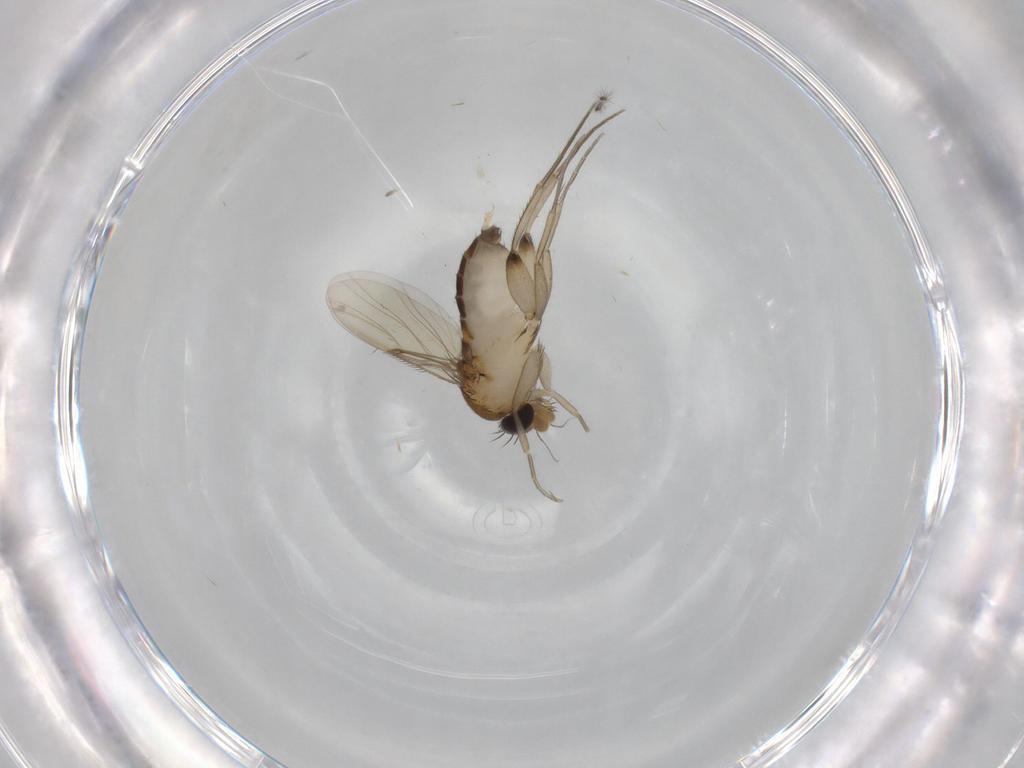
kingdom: Animalia
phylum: Arthropoda
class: Insecta
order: Diptera
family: Phoridae
